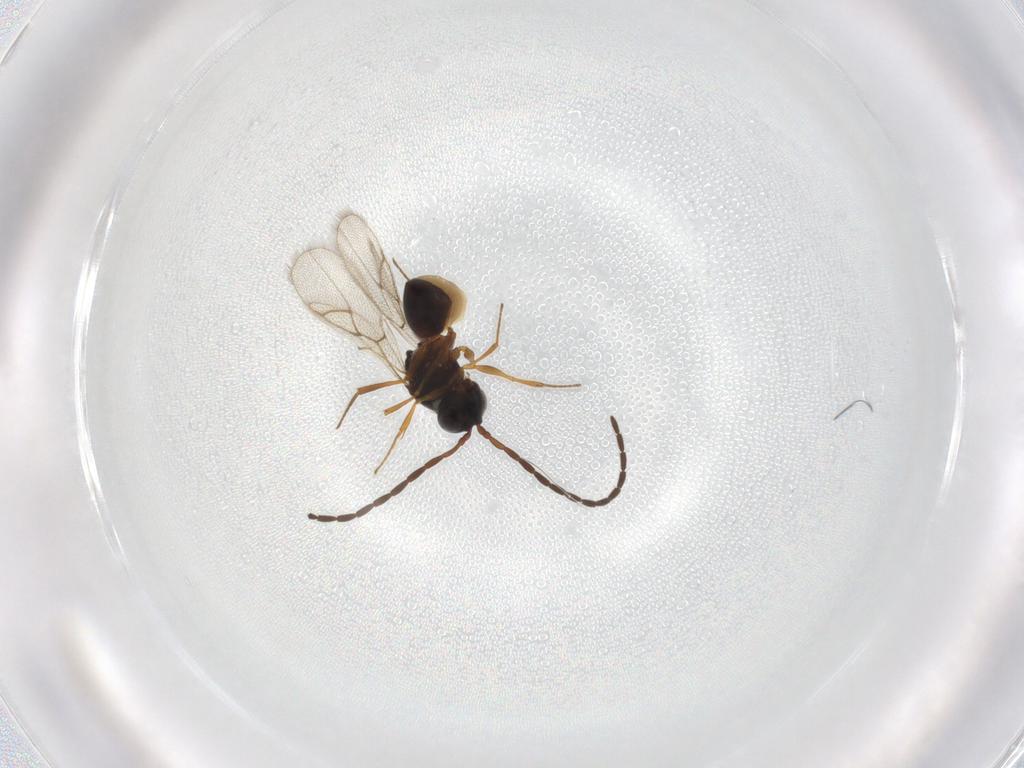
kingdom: Animalia
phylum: Arthropoda
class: Insecta
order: Hymenoptera
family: Figitidae
